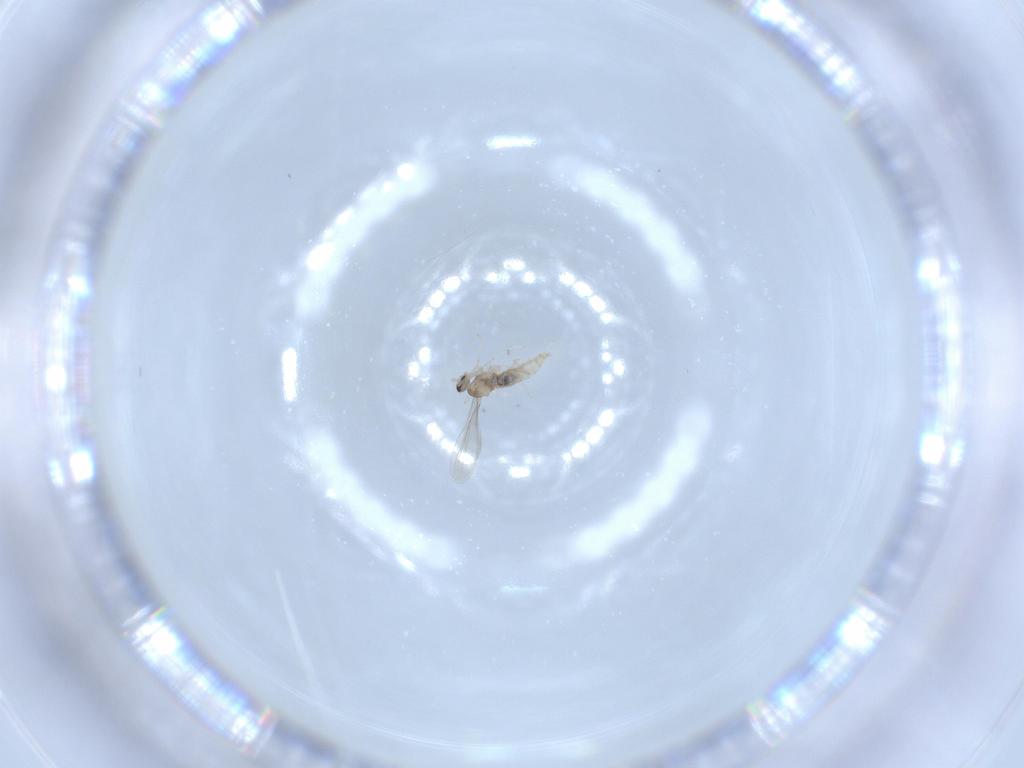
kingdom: Animalia
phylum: Arthropoda
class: Insecta
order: Diptera
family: Cecidomyiidae
